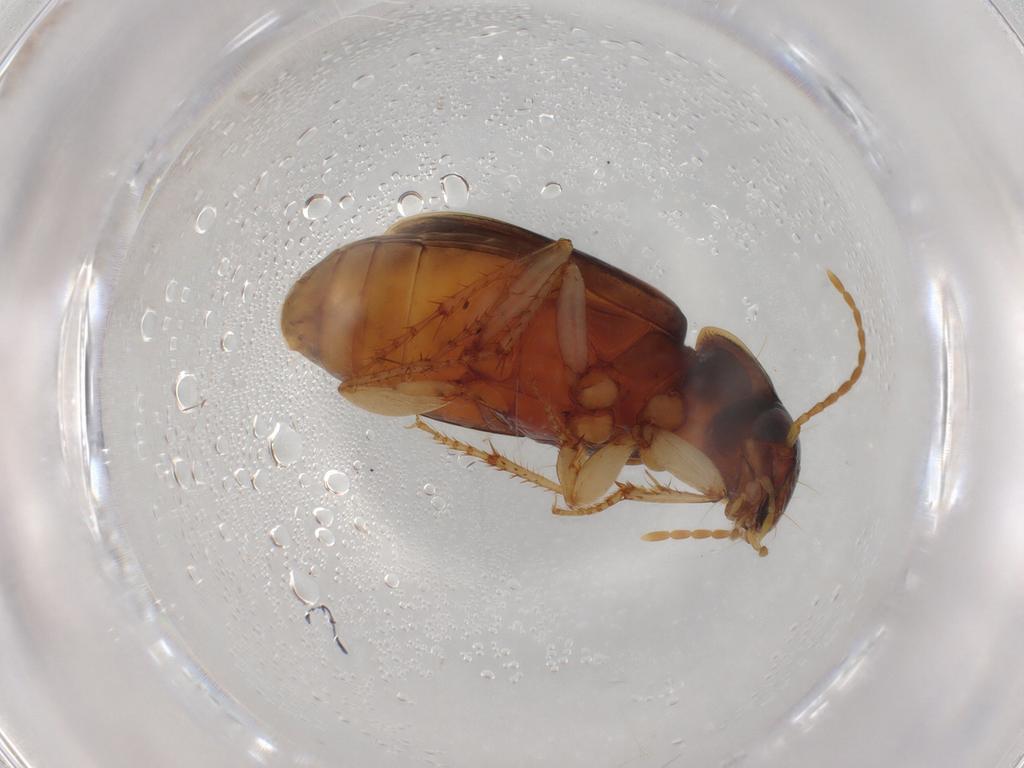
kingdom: Animalia
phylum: Arthropoda
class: Insecta
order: Coleoptera
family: Carabidae
